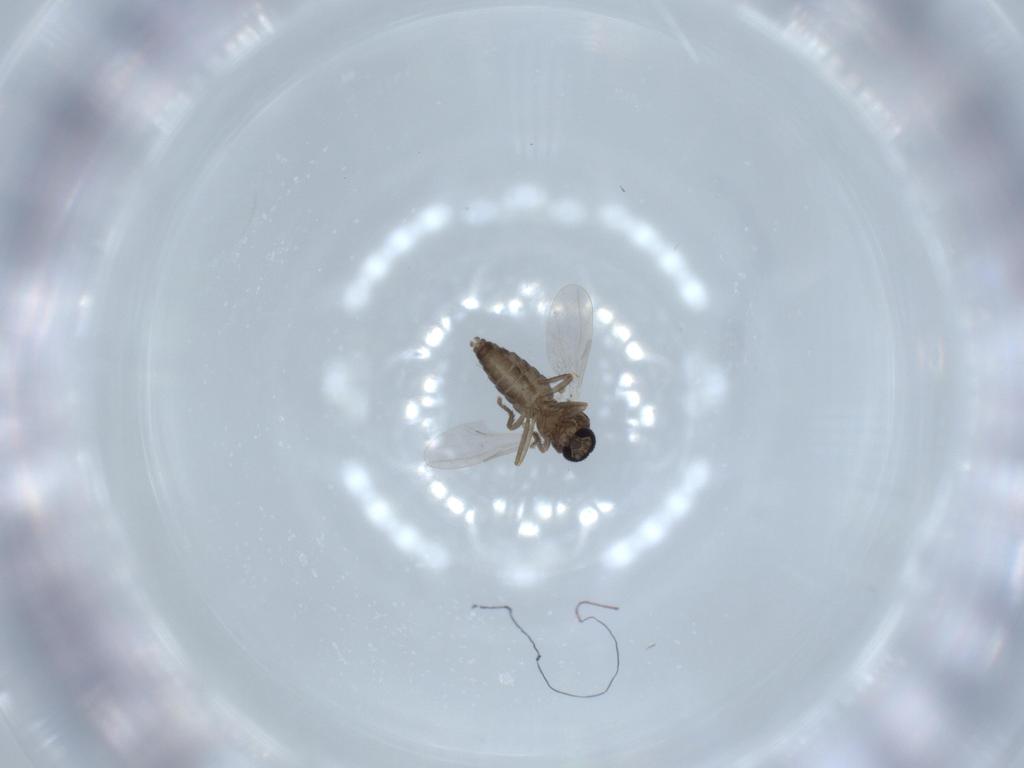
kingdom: Animalia
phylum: Arthropoda
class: Insecta
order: Diptera
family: Ceratopogonidae
